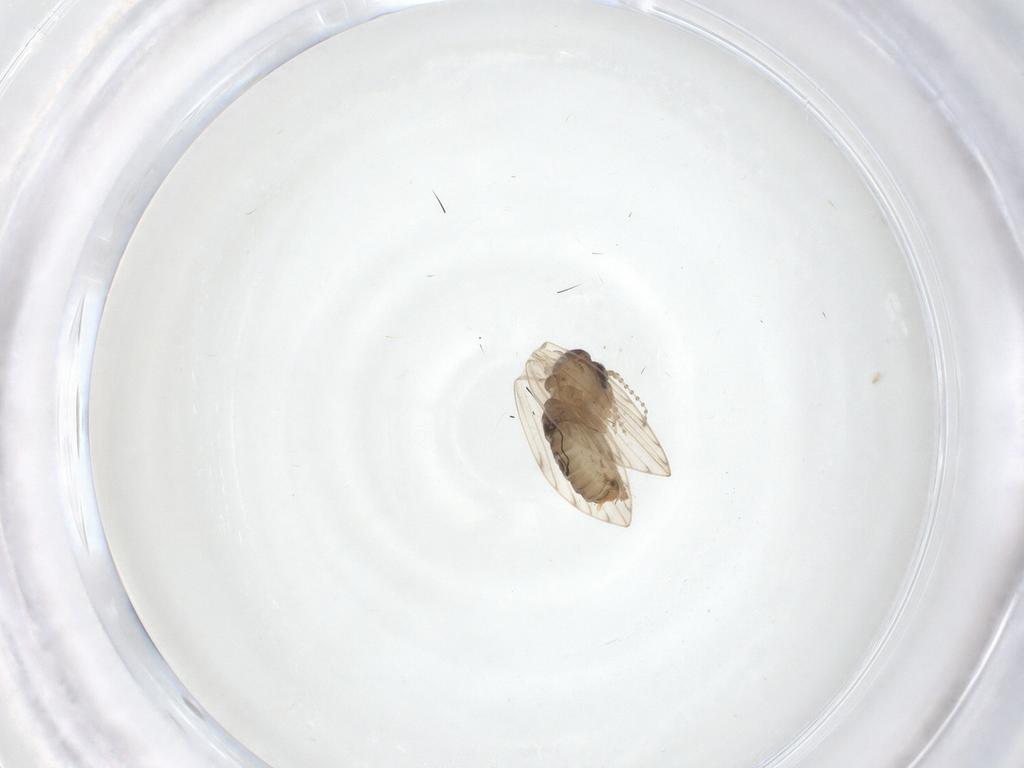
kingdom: Animalia
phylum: Arthropoda
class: Insecta
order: Diptera
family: Psychodidae
